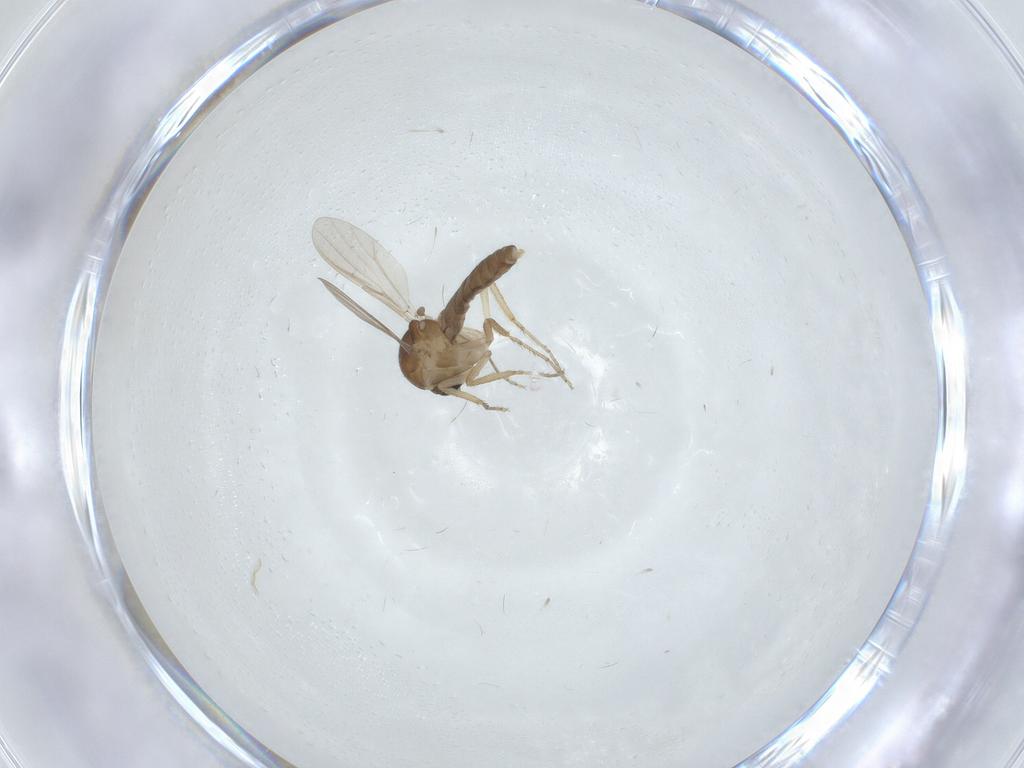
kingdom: Animalia
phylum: Arthropoda
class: Insecta
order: Diptera
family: Ceratopogonidae
